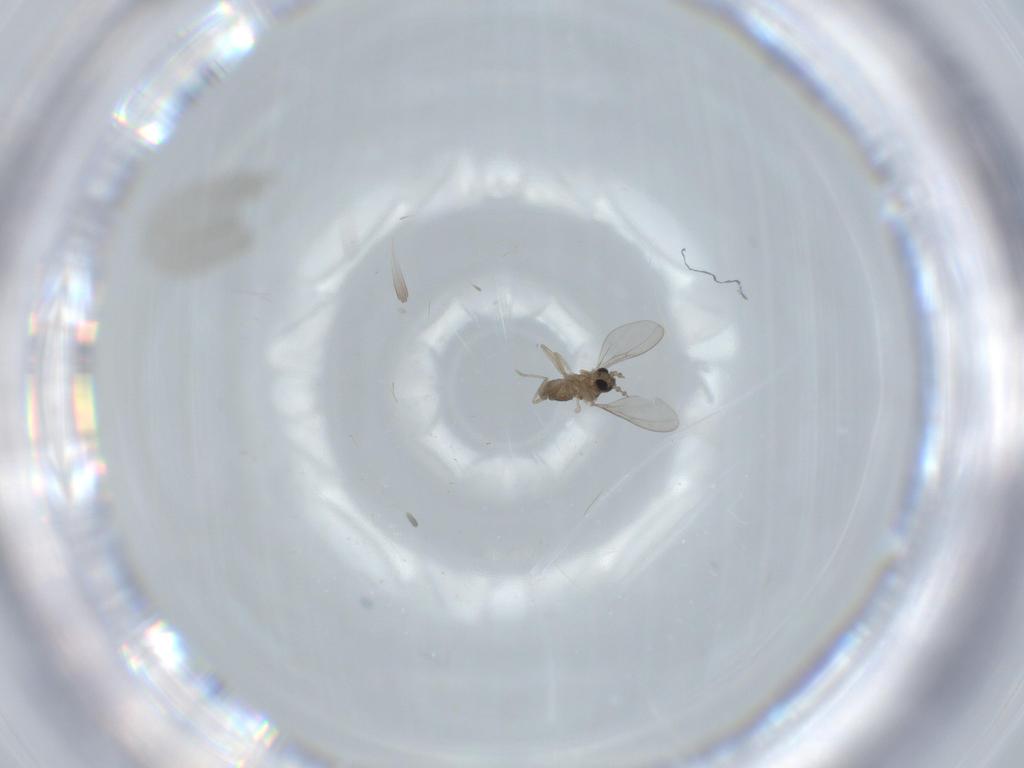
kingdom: Animalia
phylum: Arthropoda
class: Insecta
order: Diptera
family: Cecidomyiidae
